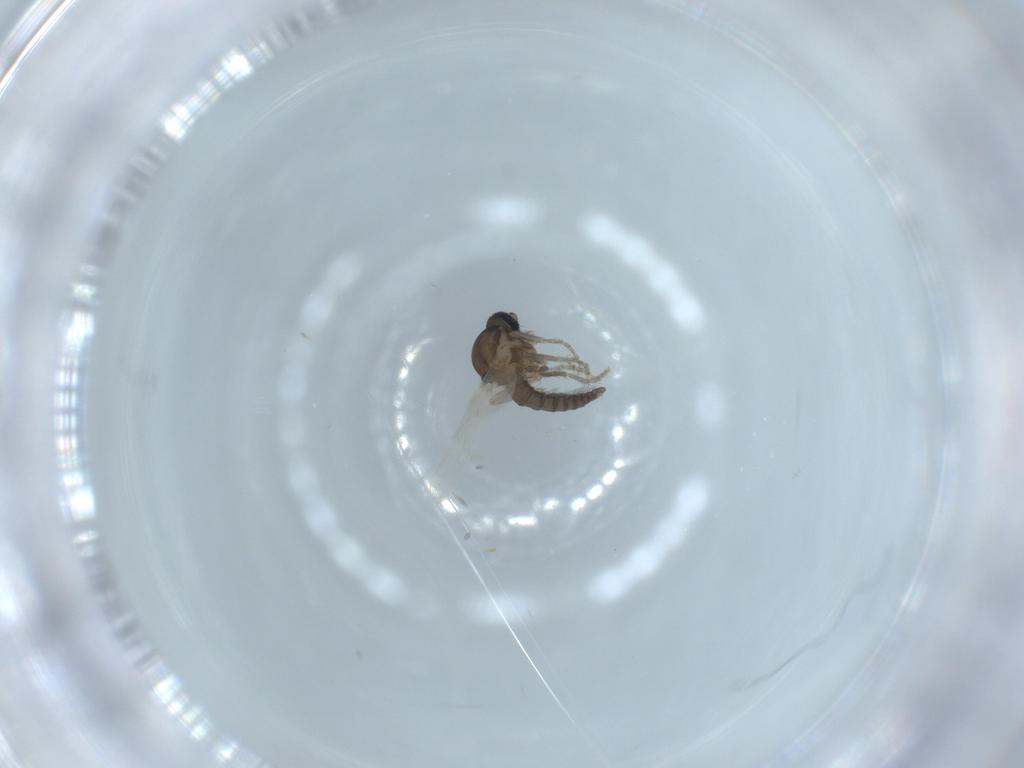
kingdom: Animalia
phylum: Arthropoda
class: Insecta
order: Diptera
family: Ceratopogonidae
